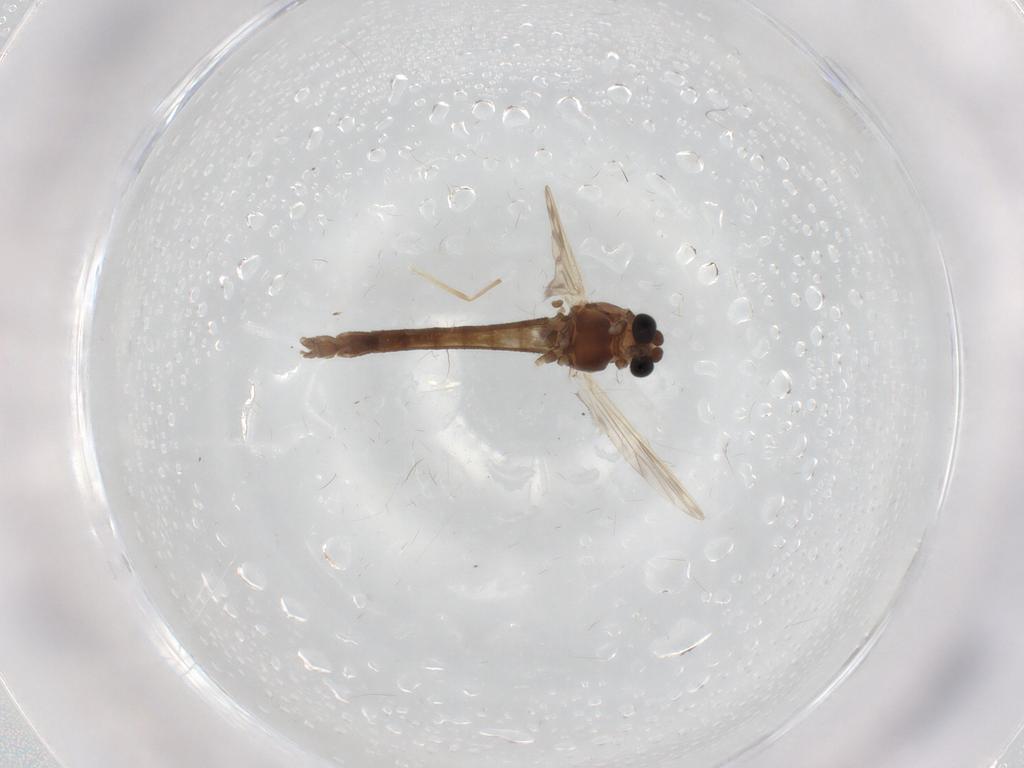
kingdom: Animalia
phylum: Arthropoda
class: Insecta
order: Diptera
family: Chironomidae
